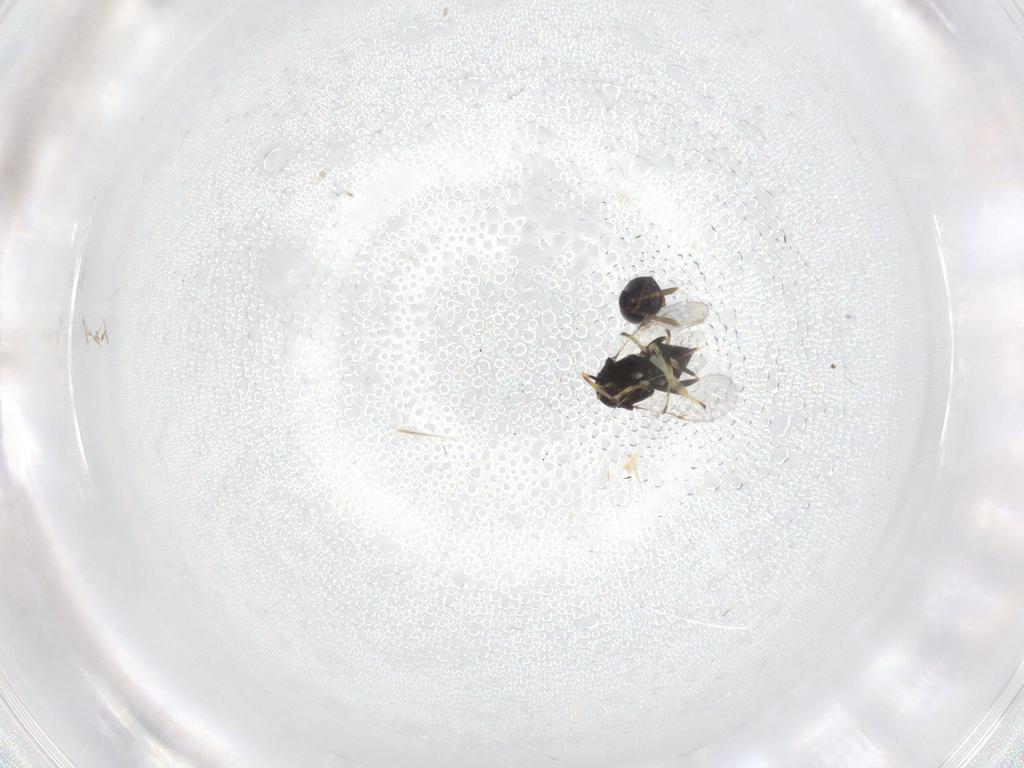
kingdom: Animalia
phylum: Arthropoda
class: Insecta
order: Hymenoptera
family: Encyrtidae
